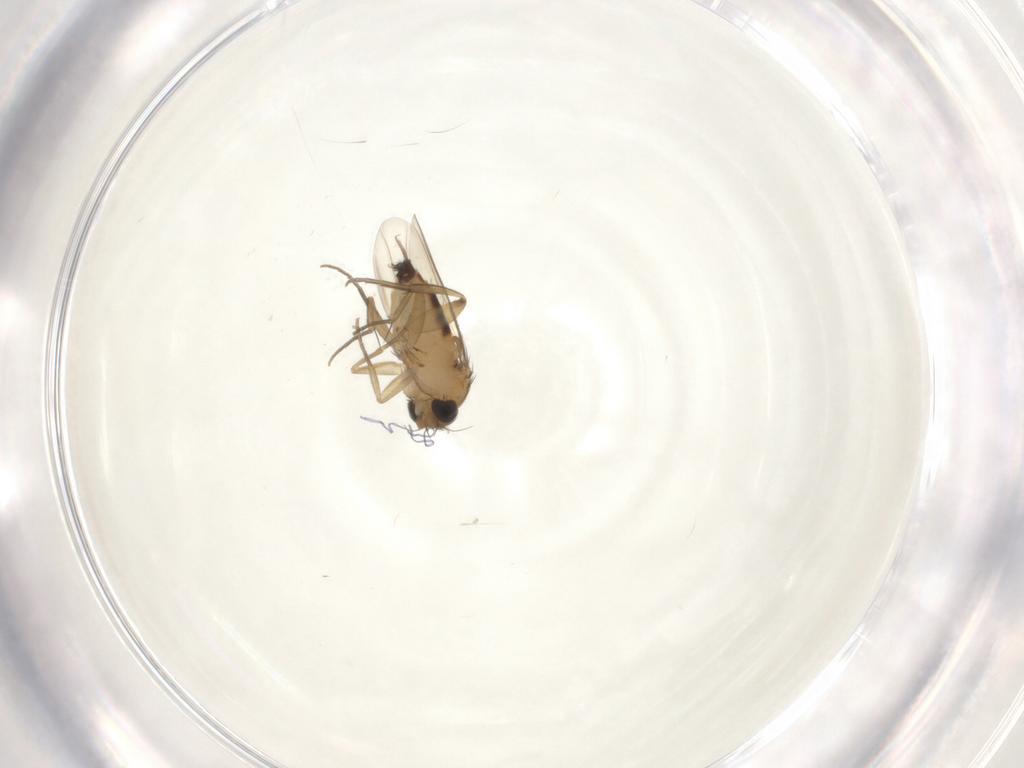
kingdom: Animalia
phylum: Arthropoda
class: Insecta
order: Diptera
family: Phoridae
